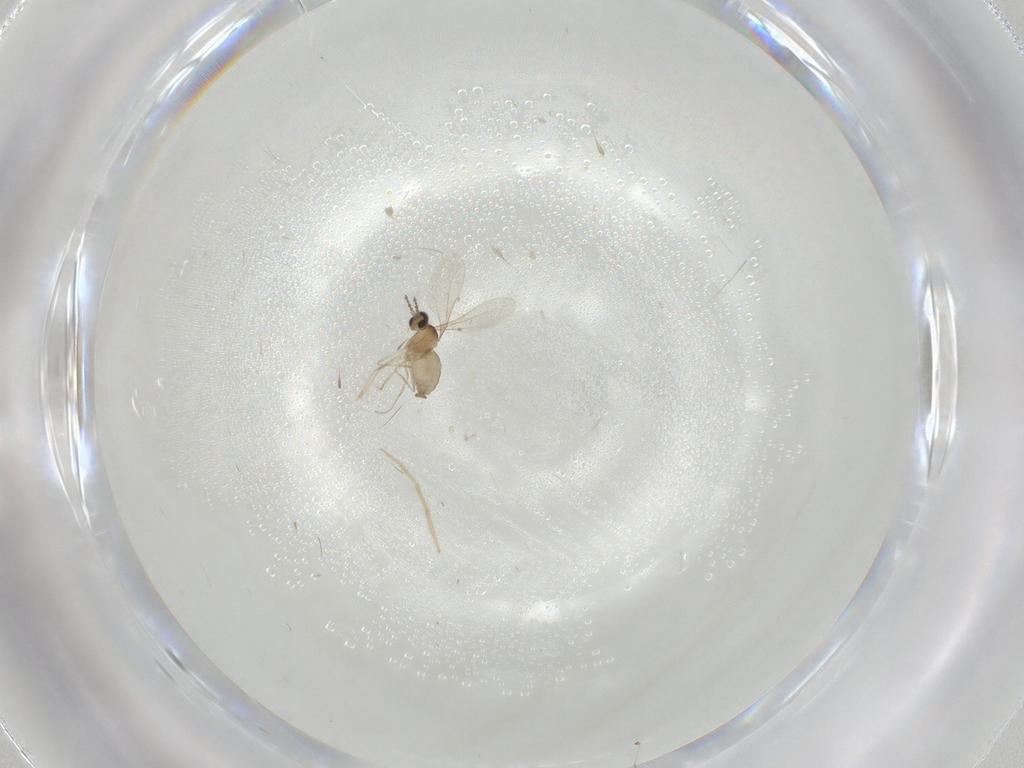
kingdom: Animalia
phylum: Arthropoda
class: Insecta
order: Diptera
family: Cecidomyiidae
